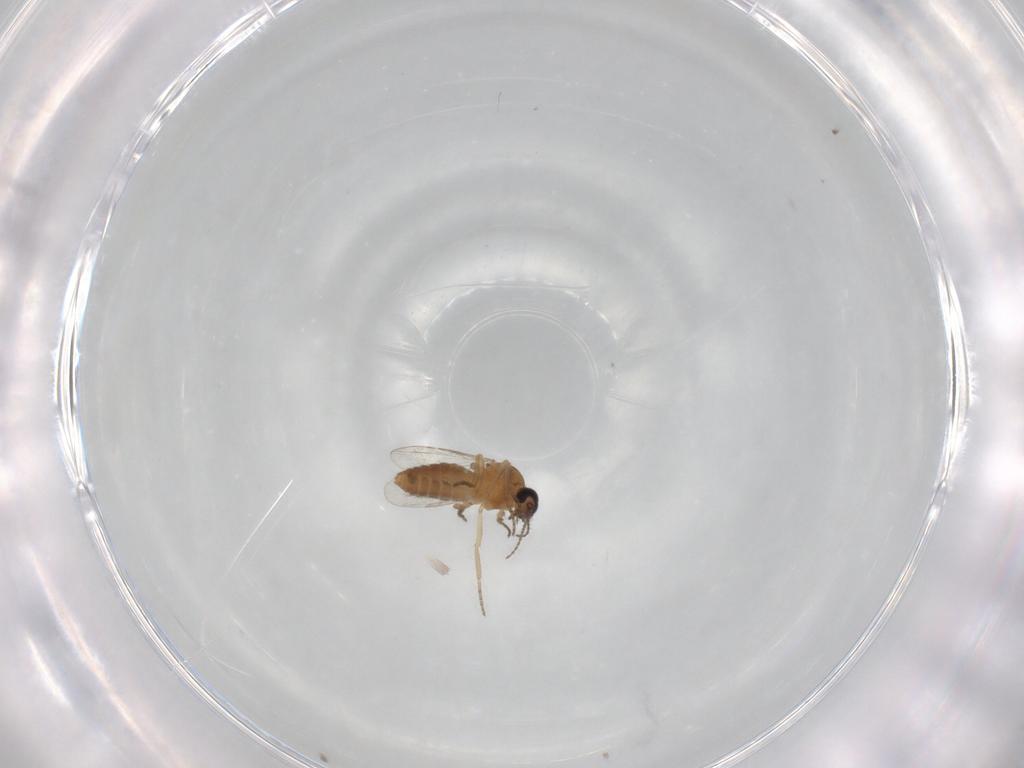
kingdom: Animalia
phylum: Arthropoda
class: Insecta
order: Diptera
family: Ceratopogonidae
